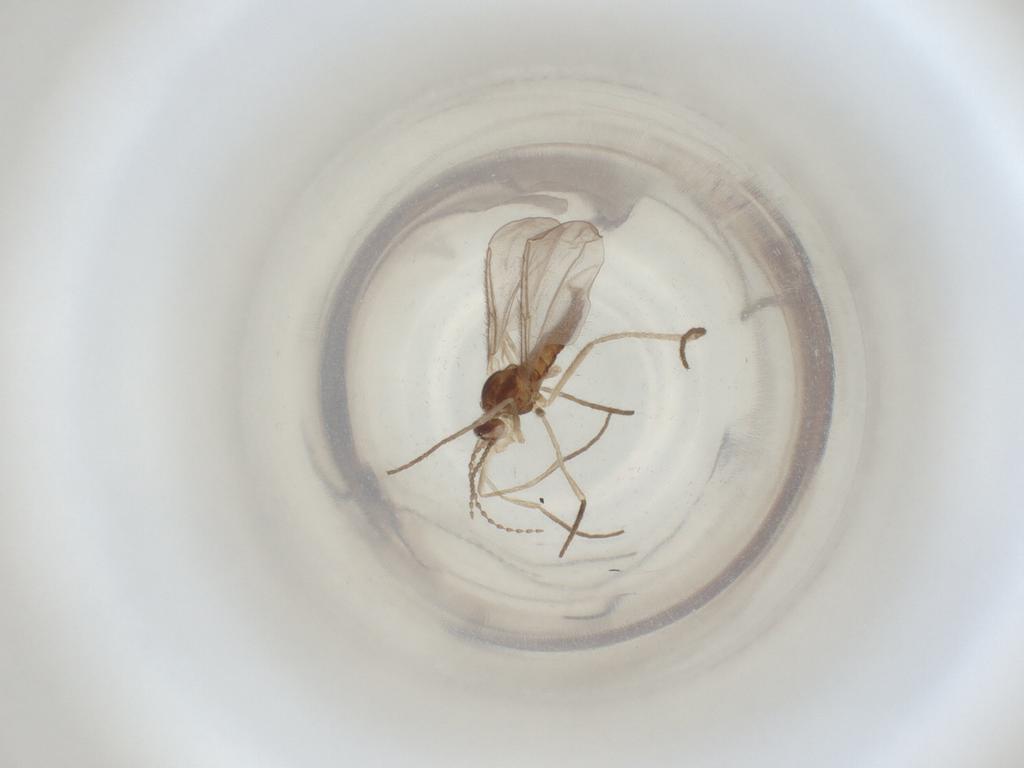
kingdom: Animalia
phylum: Arthropoda
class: Insecta
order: Diptera
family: Cecidomyiidae
